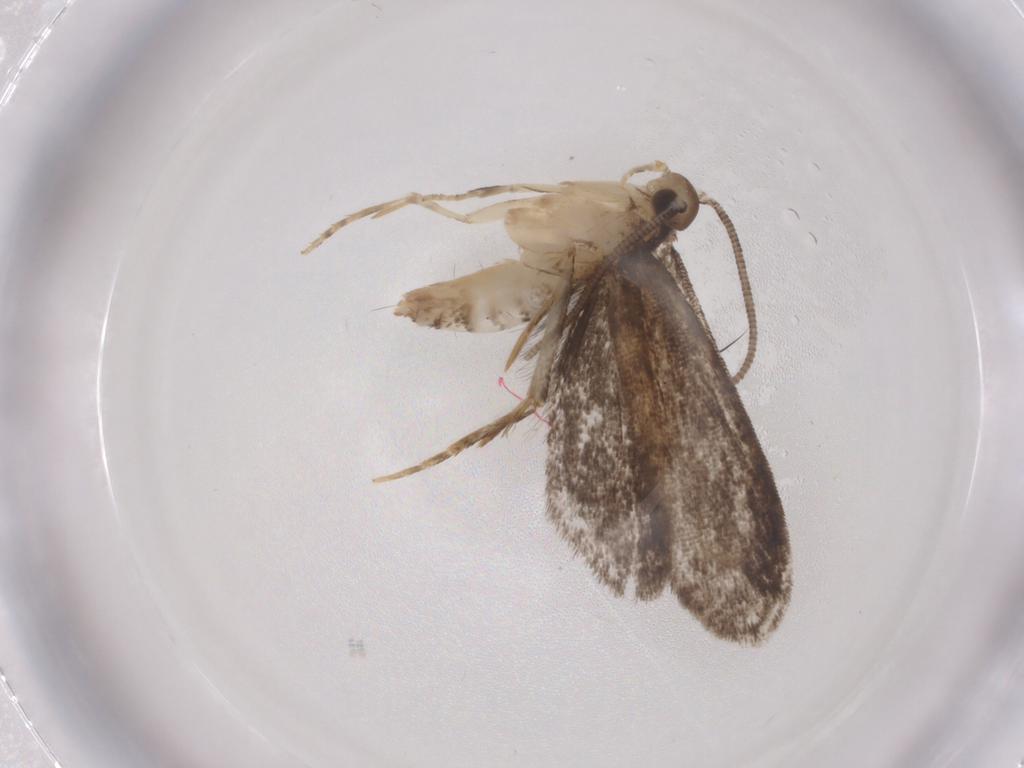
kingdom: Animalia
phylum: Arthropoda
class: Insecta
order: Lepidoptera
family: Dryadaulidae
